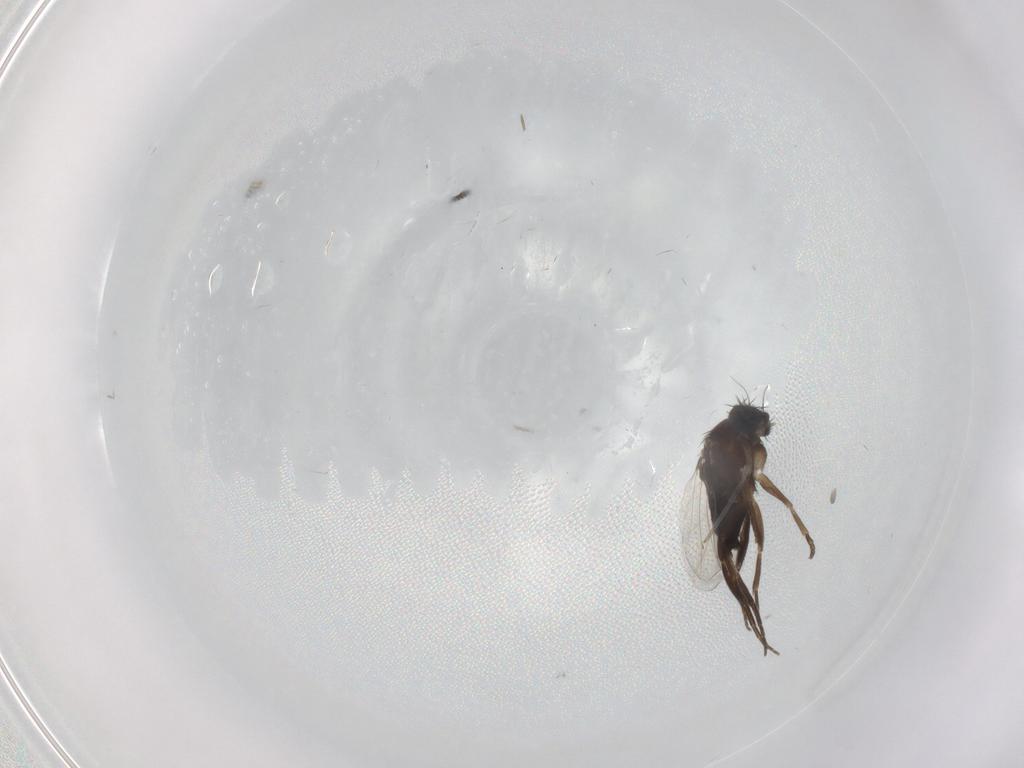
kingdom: Animalia
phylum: Arthropoda
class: Insecta
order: Diptera
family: Phoridae
